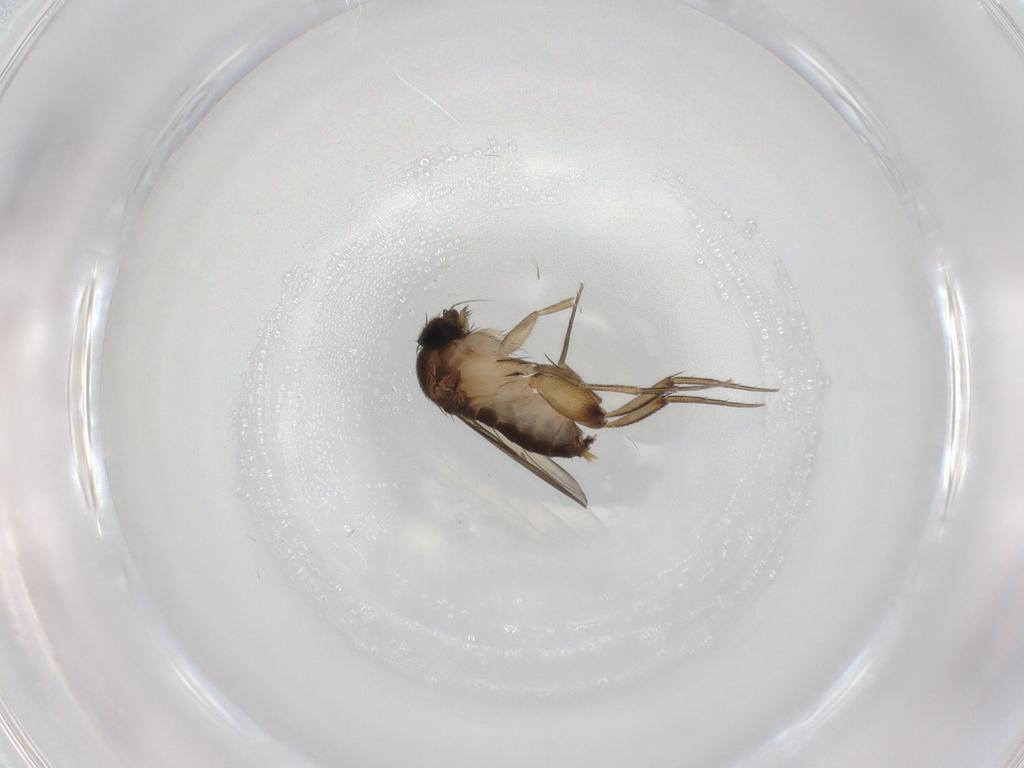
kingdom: Animalia
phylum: Arthropoda
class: Insecta
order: Diptera
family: Phoridae
